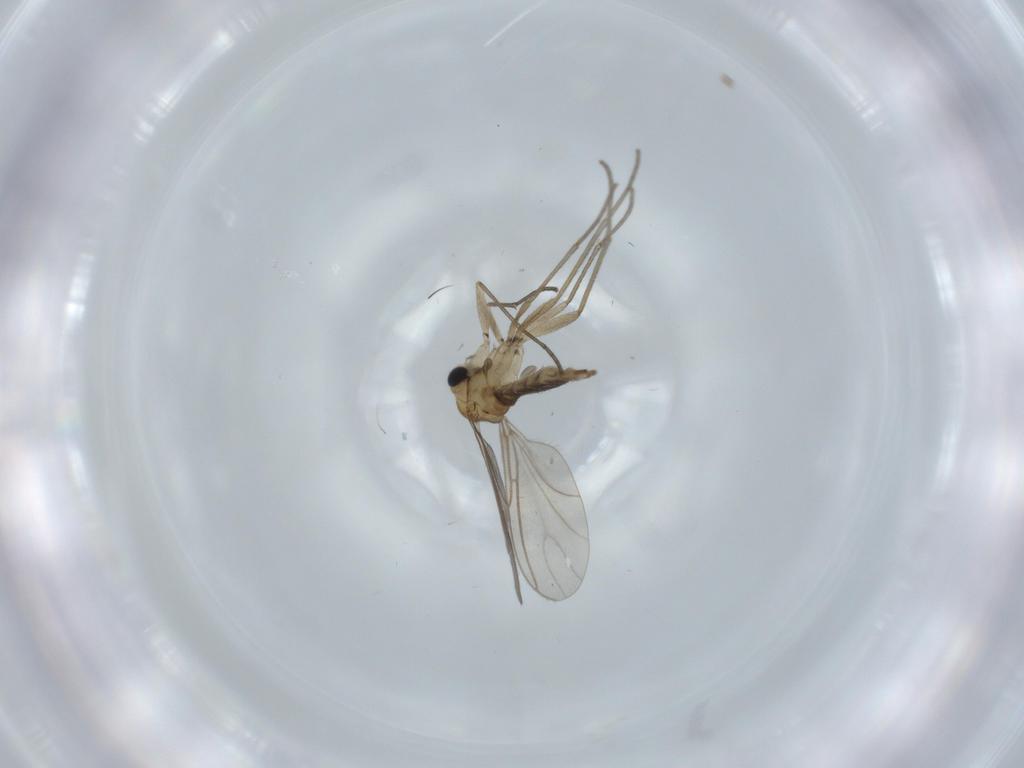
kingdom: Animalia
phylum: Arthropoda
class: Insecta
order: Diptera
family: Sciaridae
